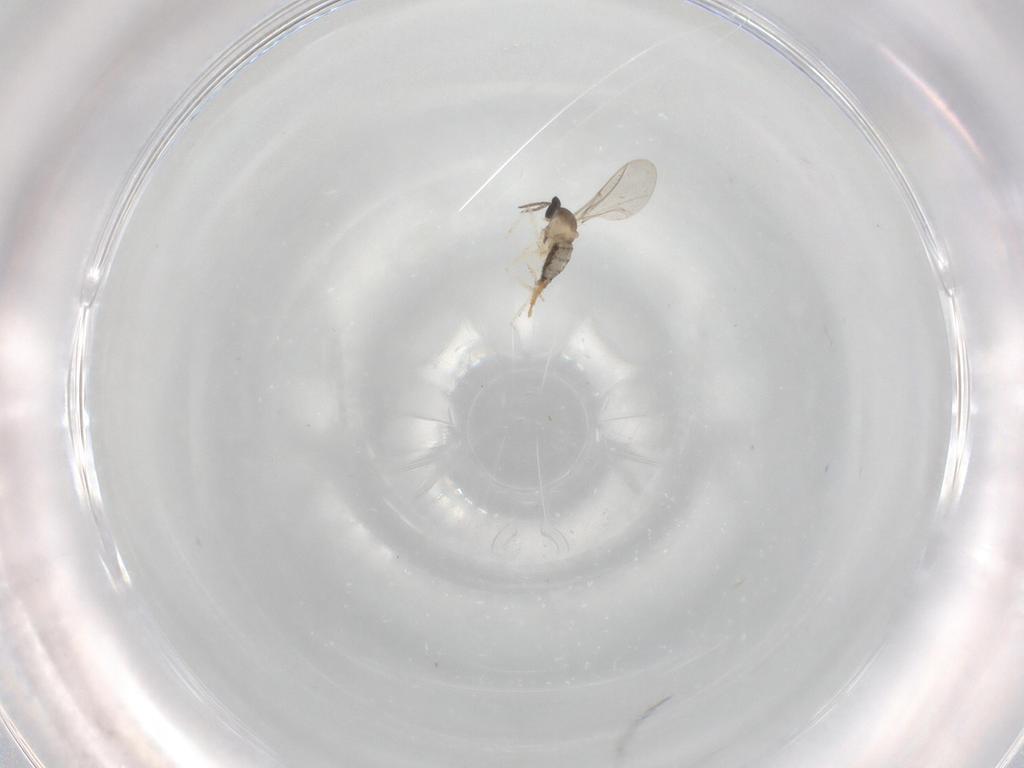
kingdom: Animalia
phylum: Arthropoda
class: Insecta
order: Diptera
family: Cecidomyiidae
